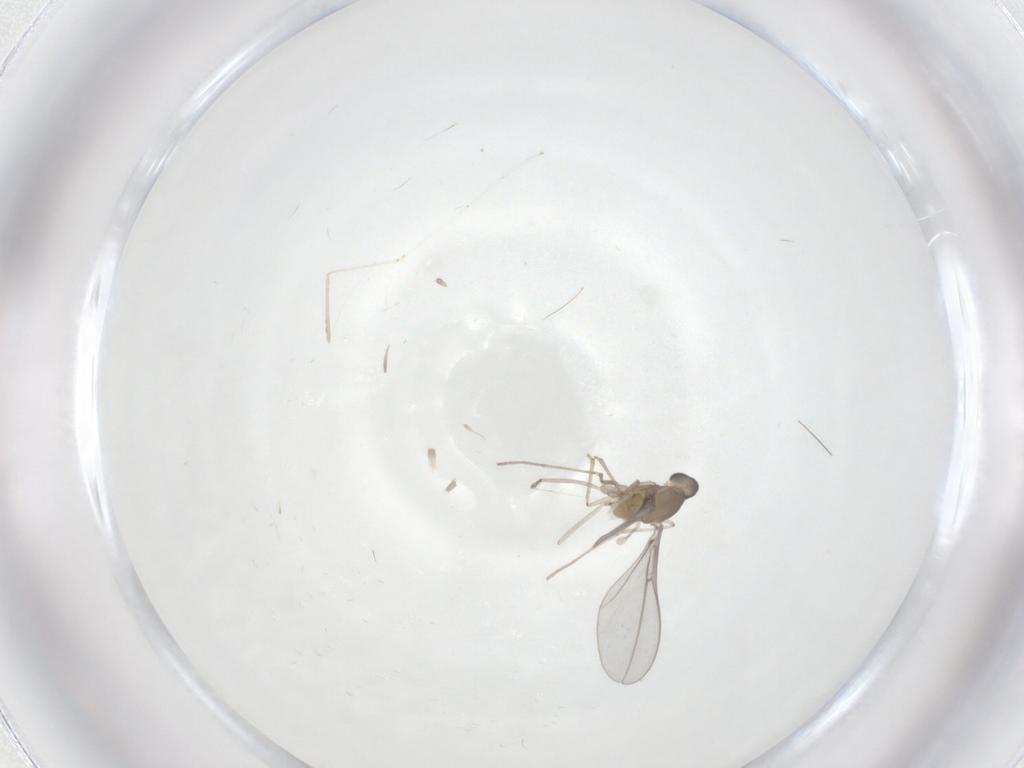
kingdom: Animalia
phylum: Arthropoda
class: Insecta
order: Diptera
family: Cecidomyiidae
